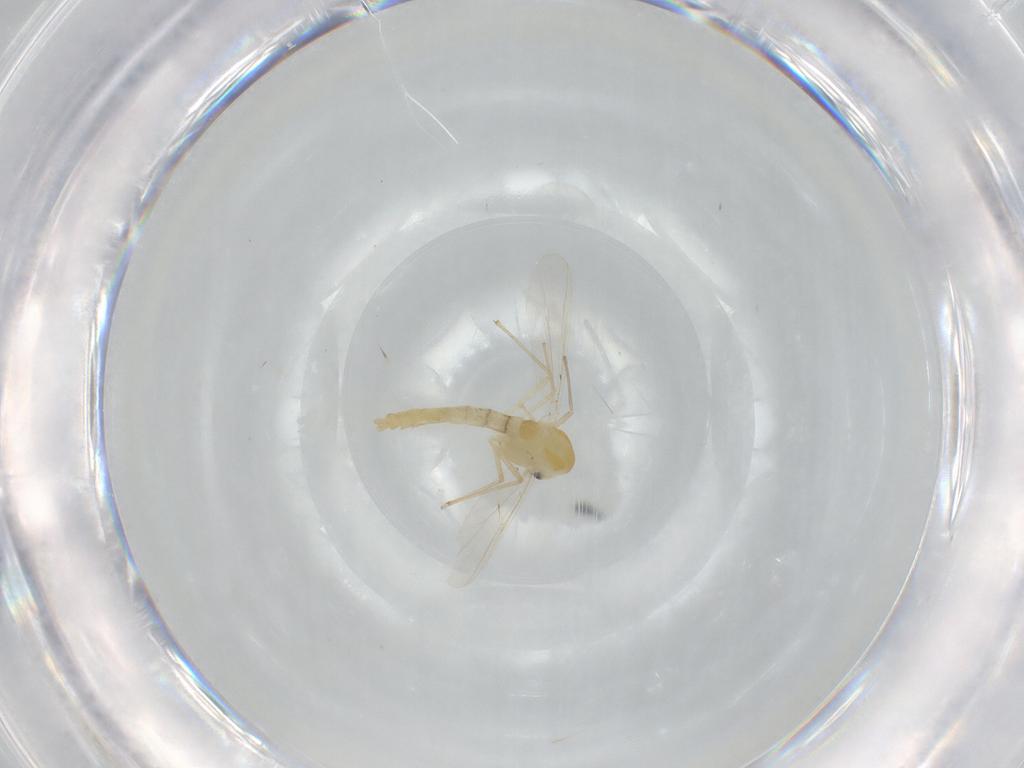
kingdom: Animalia
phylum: Arthropoda
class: Insecta
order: Diptera
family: Chironomidae
